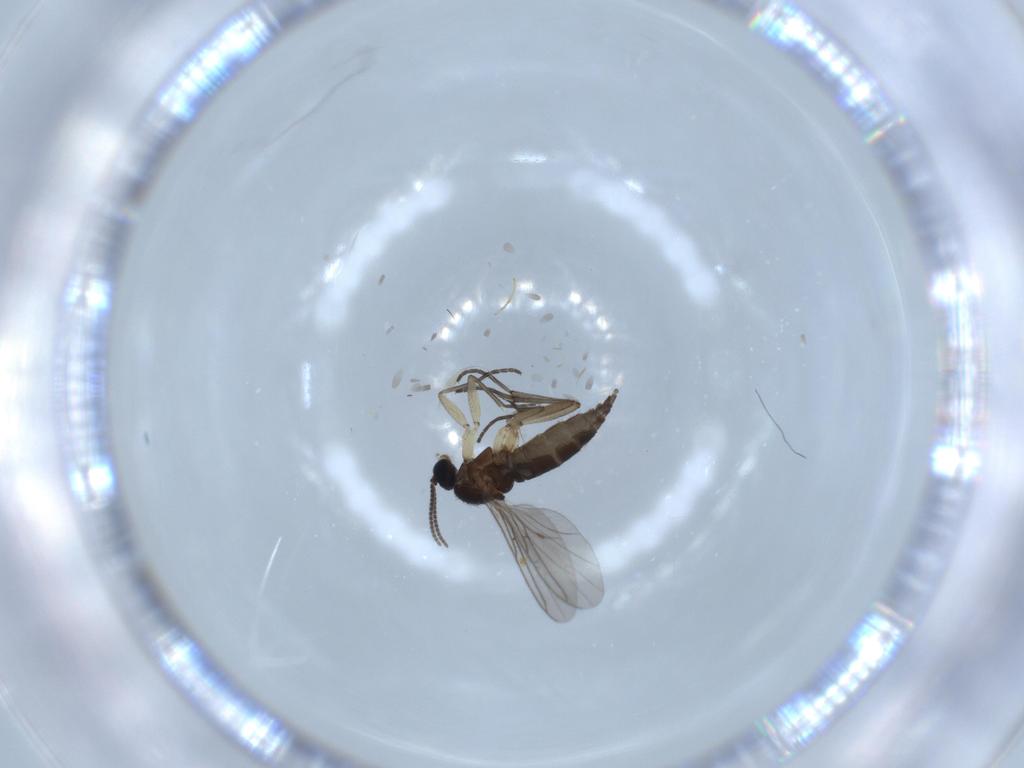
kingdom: Animalia
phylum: Arthropoda
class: Insecta
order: Diptera
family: Sciaridae
